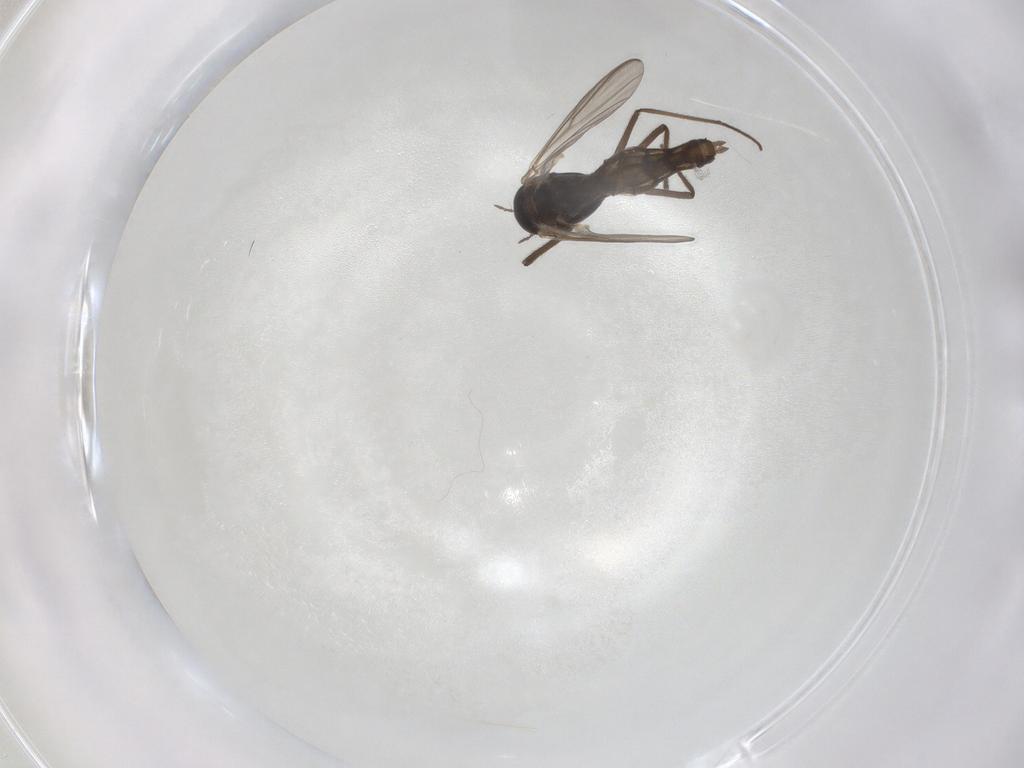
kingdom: Animalia
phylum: Arthropoda
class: Insecta
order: Diptera
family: Chironomidae
